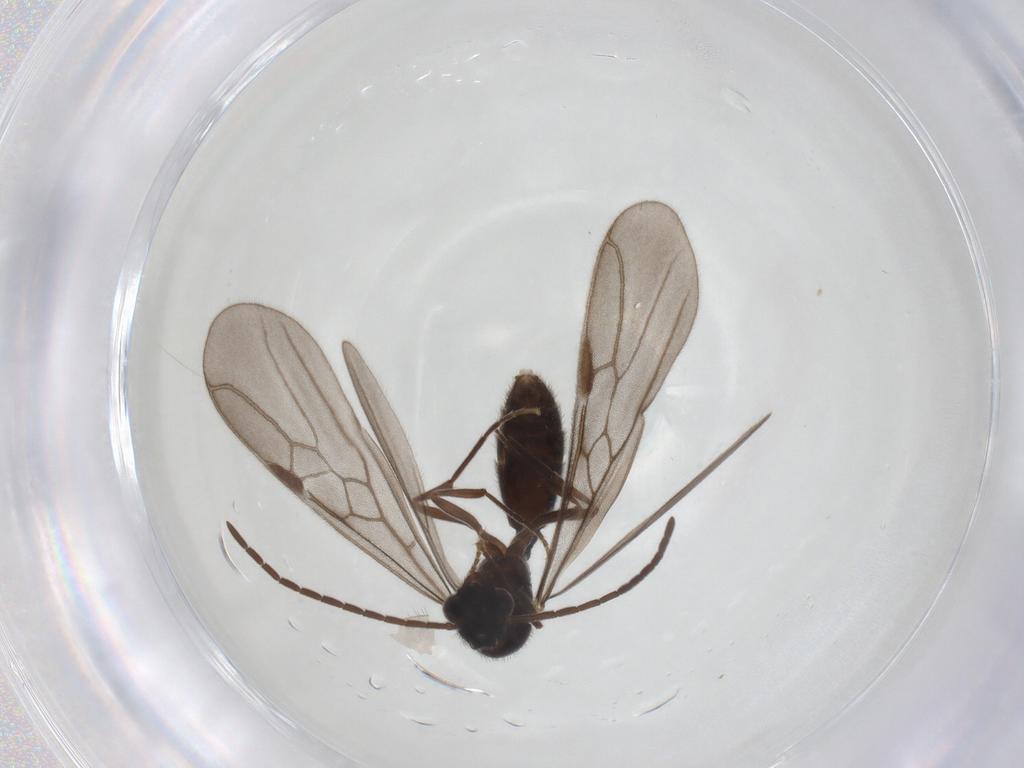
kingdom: Animalia
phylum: Arthropoda
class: Insecta
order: Hymenoptera
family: Formicidae
